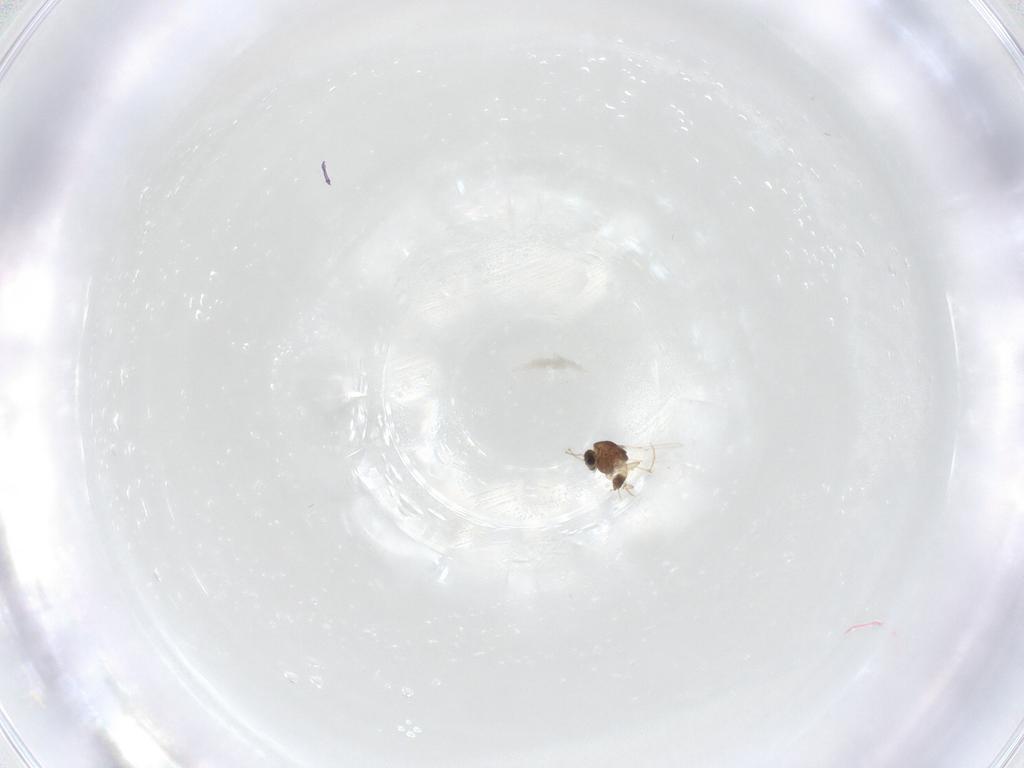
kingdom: Animalia
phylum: Arthropoda
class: Insecta
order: Diptera
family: Chironomidae
